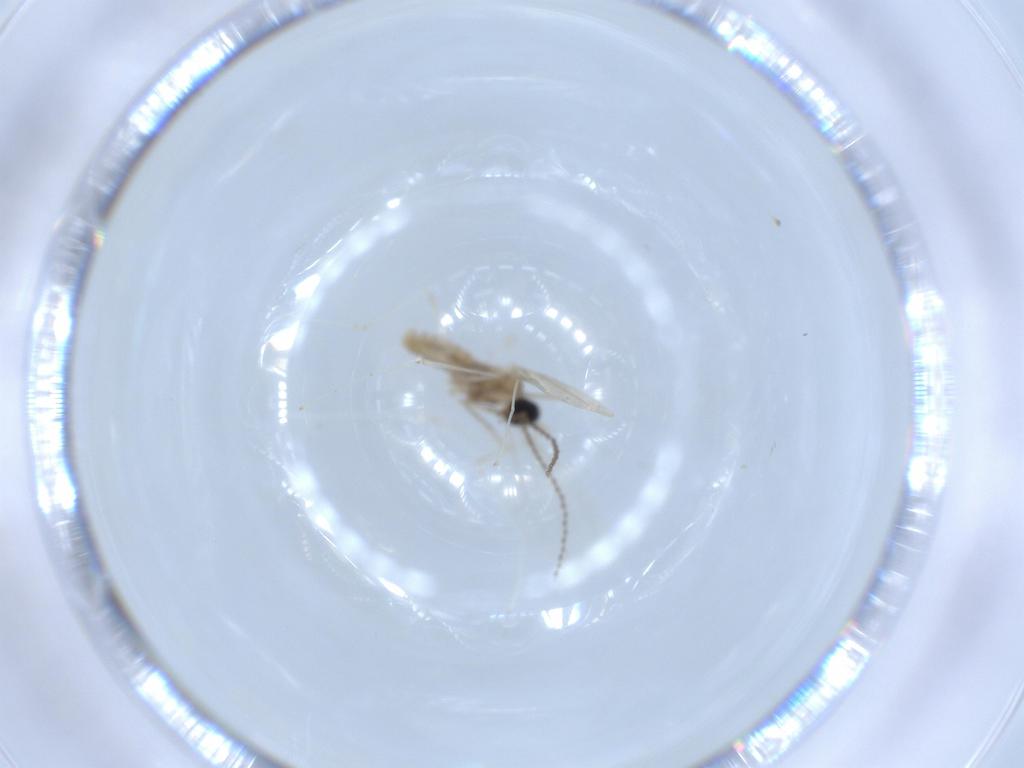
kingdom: Animalia
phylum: Arthropoda
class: Insecta
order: Diptera
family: Cecidomyiidae
